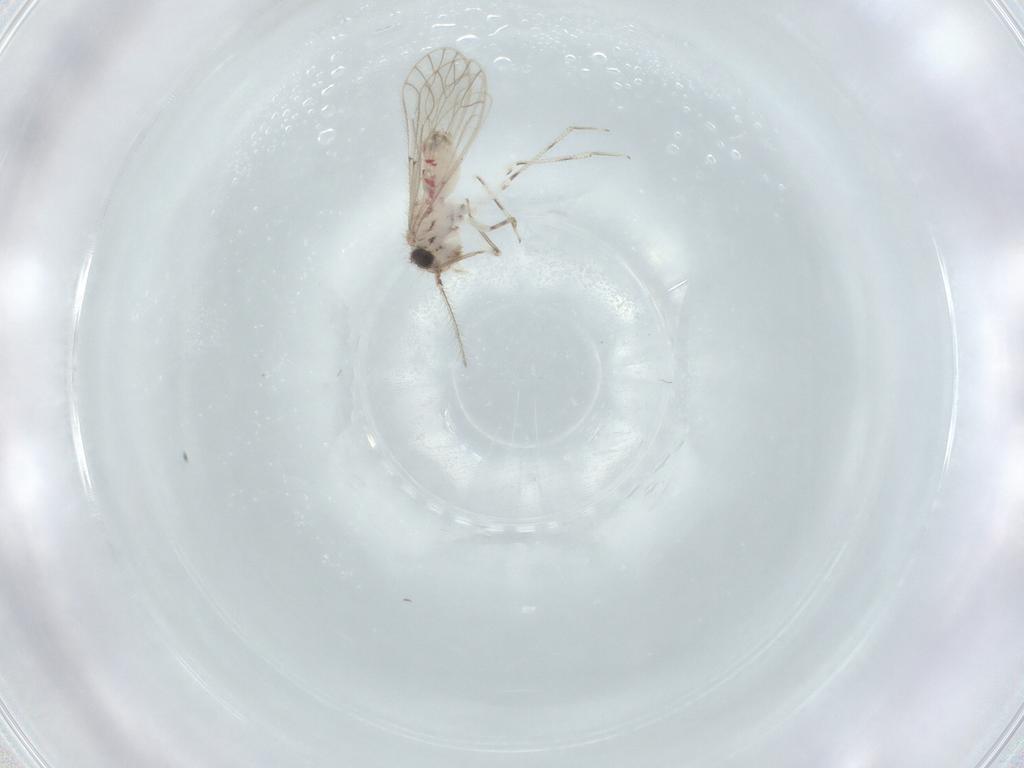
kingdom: Animalia
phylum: Arthropoda
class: Insecta
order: Psocodea
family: Caeciliusidae
